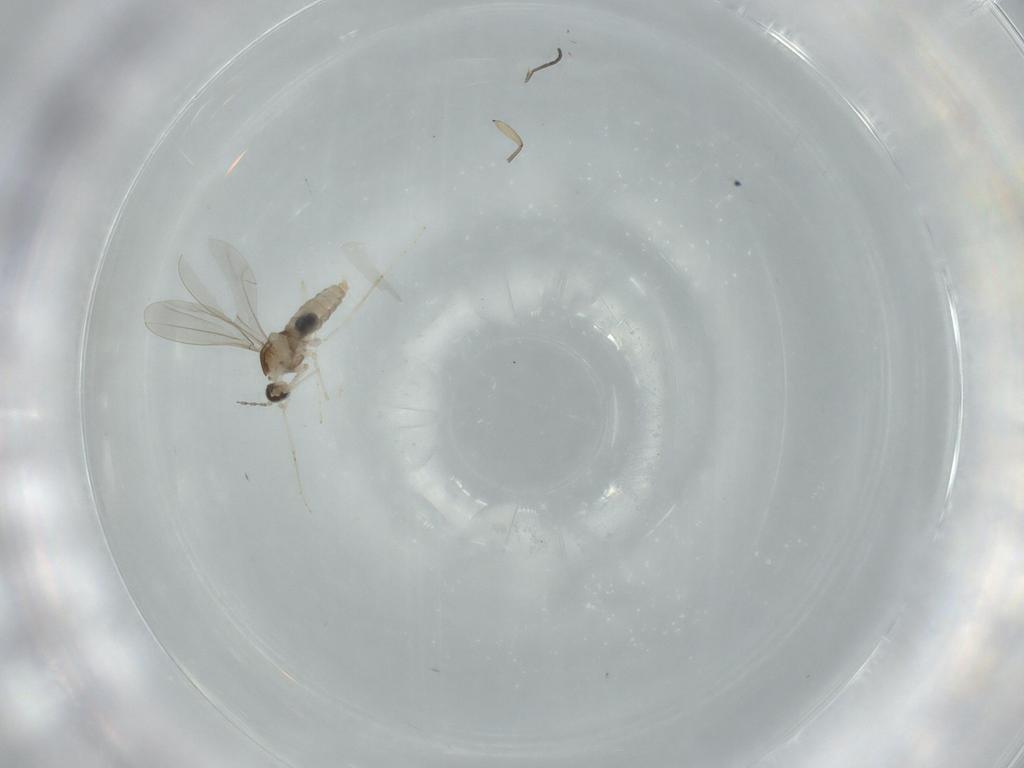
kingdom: Animalia
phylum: Arthropoda
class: Insecta
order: Diptera
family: Cecidomyiidae
